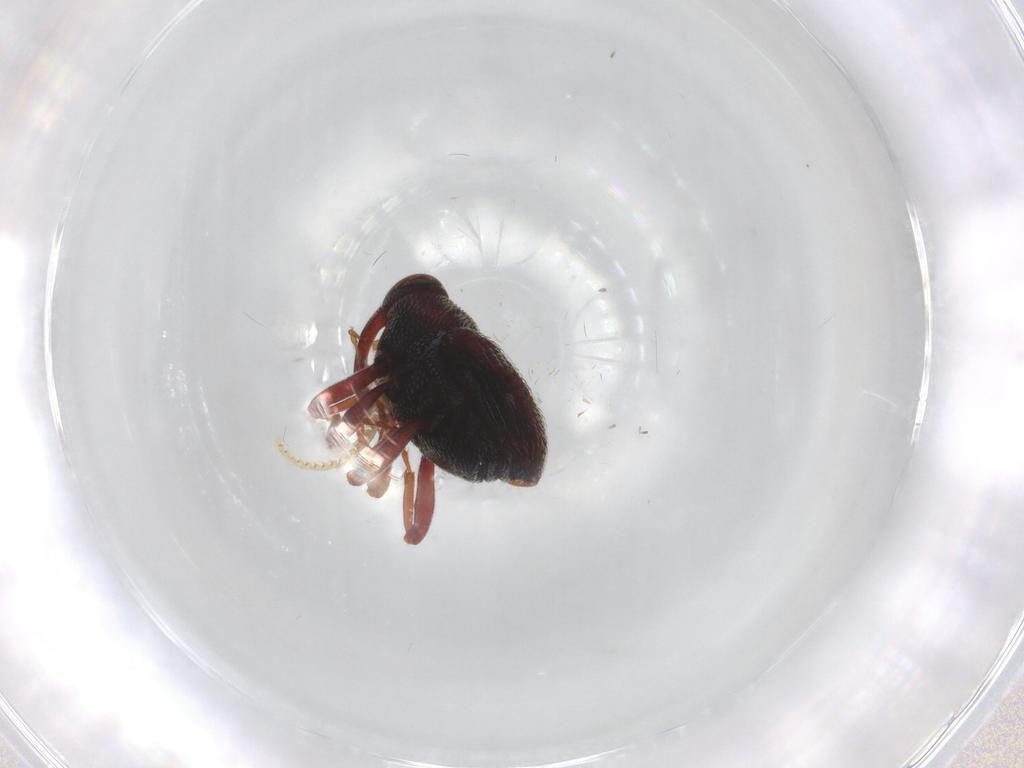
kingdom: Animalia
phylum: Arthropoda
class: Insecta
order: Coleoptera
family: Curculionidae
